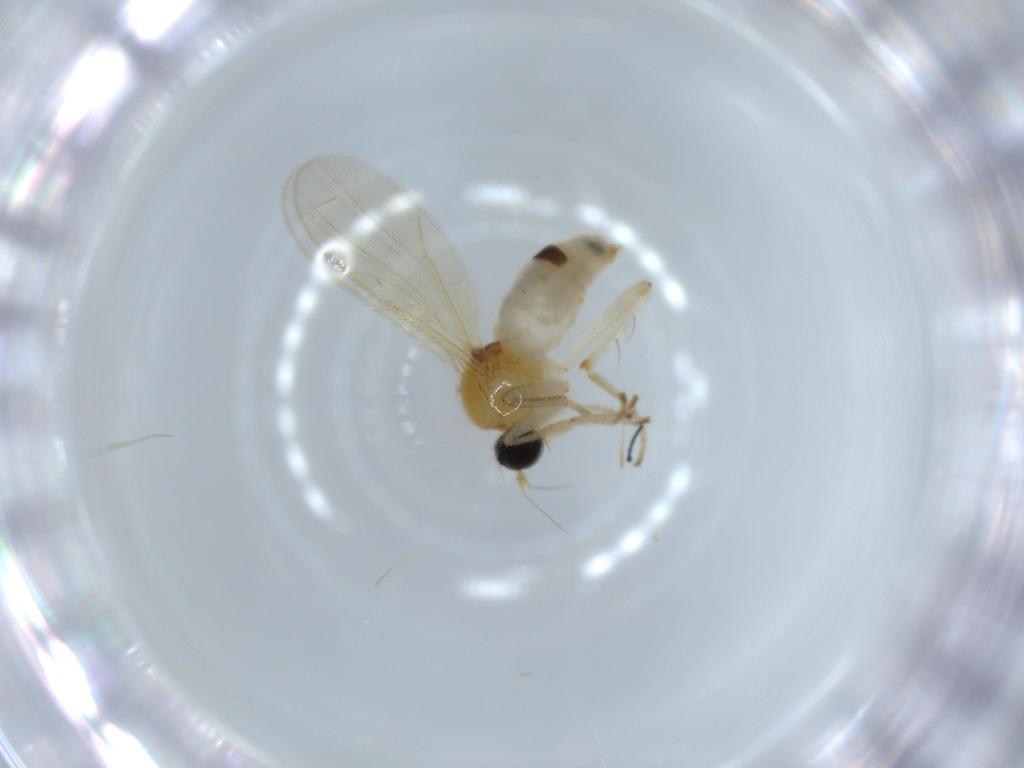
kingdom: Animalia
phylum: Arthropoda
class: Insecta
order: Diptera
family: Hybotidae
